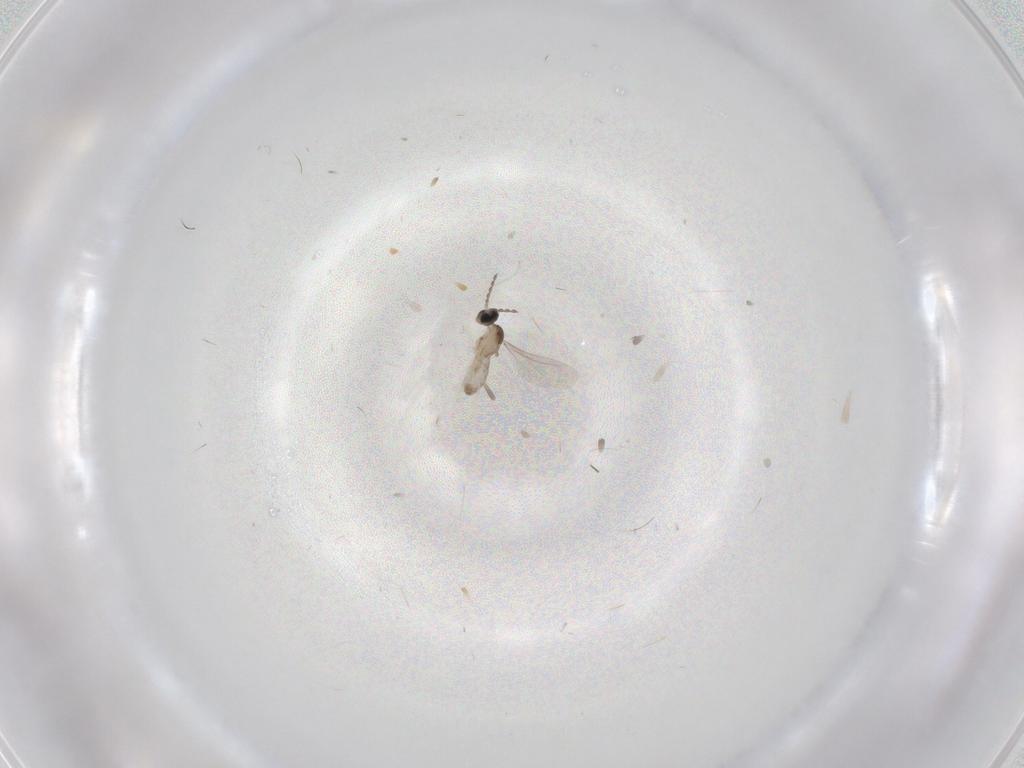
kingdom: Animalia
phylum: Arthropoda
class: Insecta
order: Diptera
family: Cecidomyiidae
